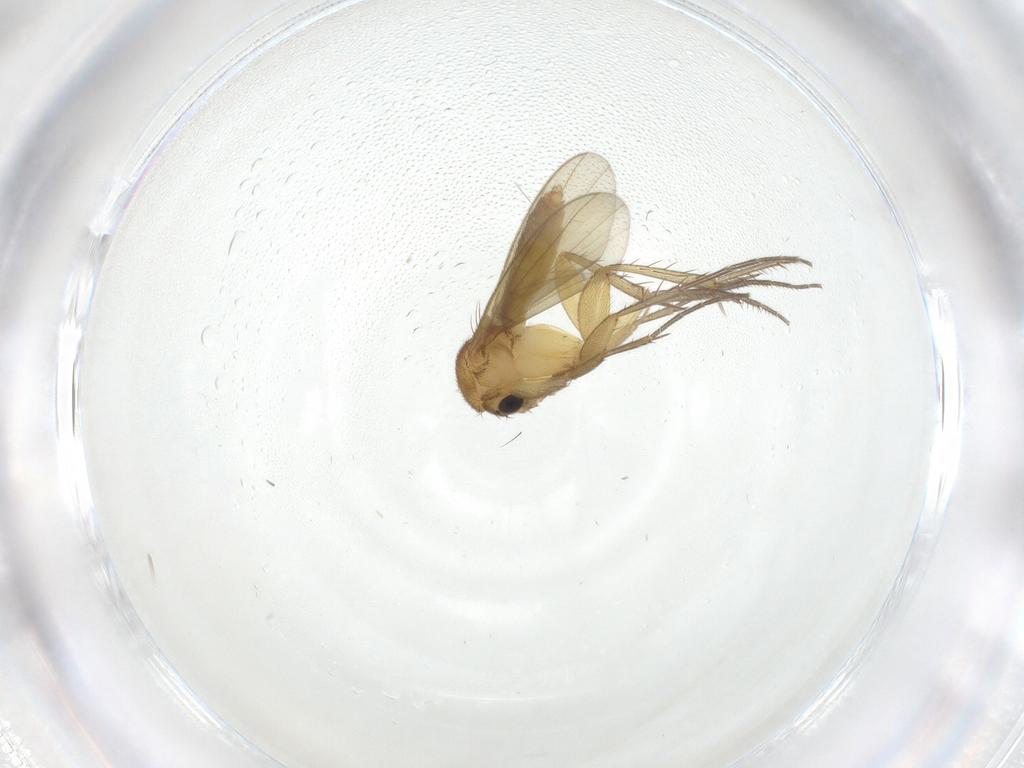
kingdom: Animalia
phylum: Arthropoda
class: Insecta
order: Diptera
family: Mycetophilidae
